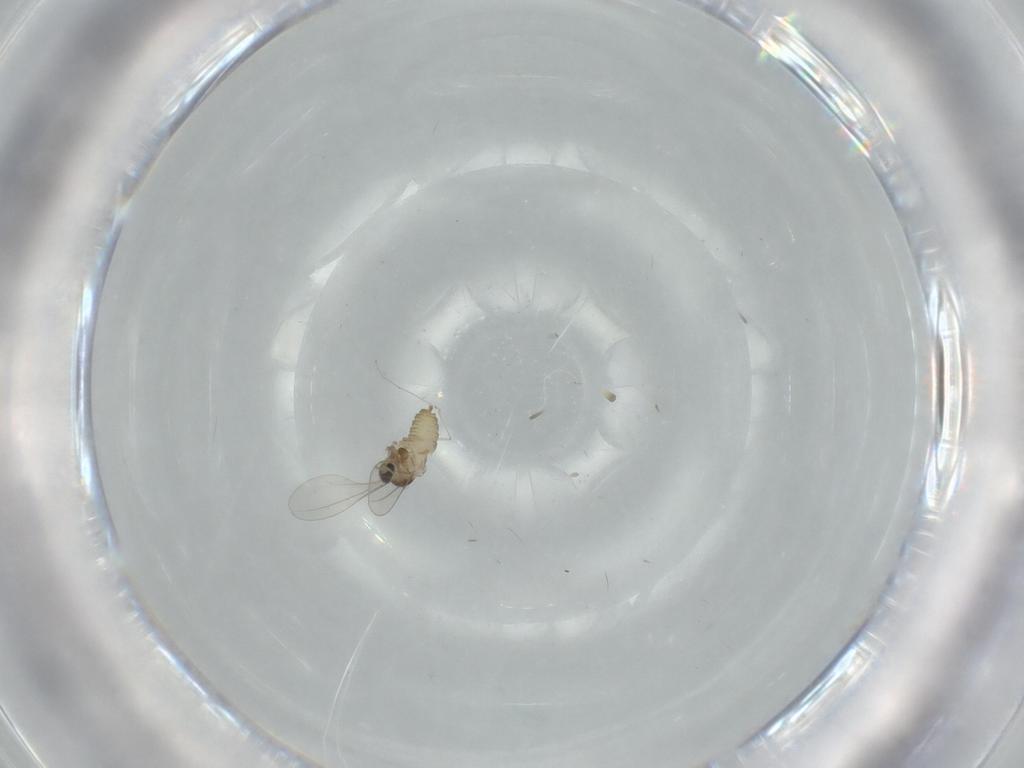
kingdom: Animalia
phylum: Arthropoda
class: Insecta
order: Diptera
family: Cecidomyiidae
